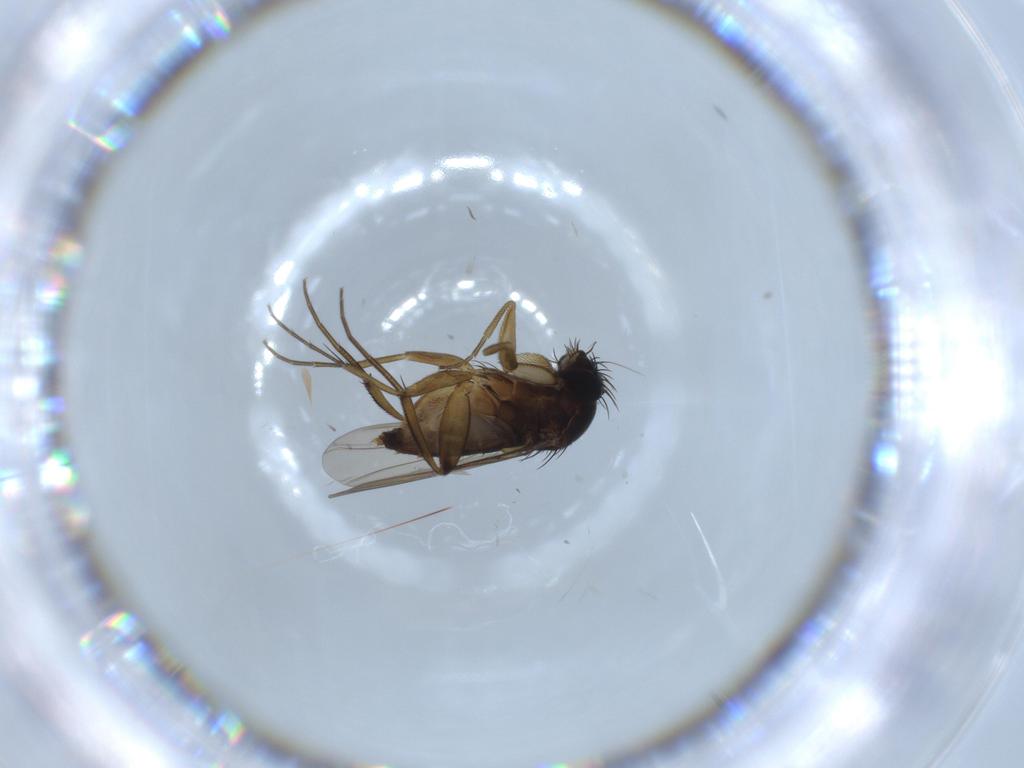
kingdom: Animalia
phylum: Arthropoda
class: Insecta
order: Diptera
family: Phoridae
